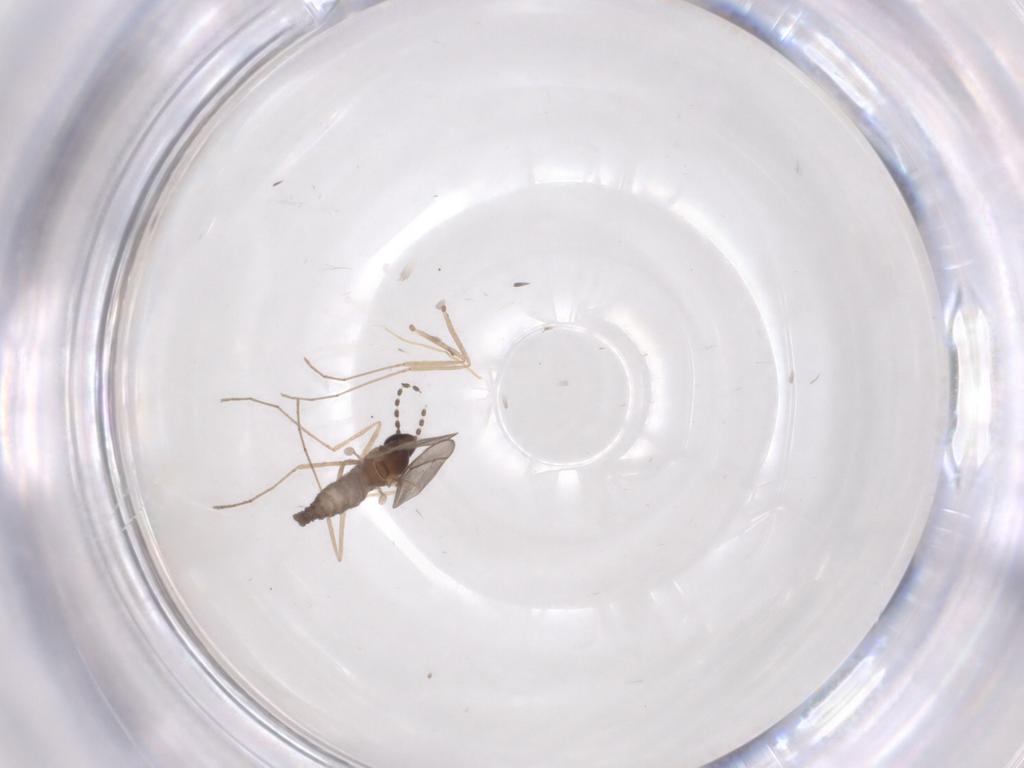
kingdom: Animalia
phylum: Arthropoda
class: Insecta
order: Diptera
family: Cecidomyiidae
